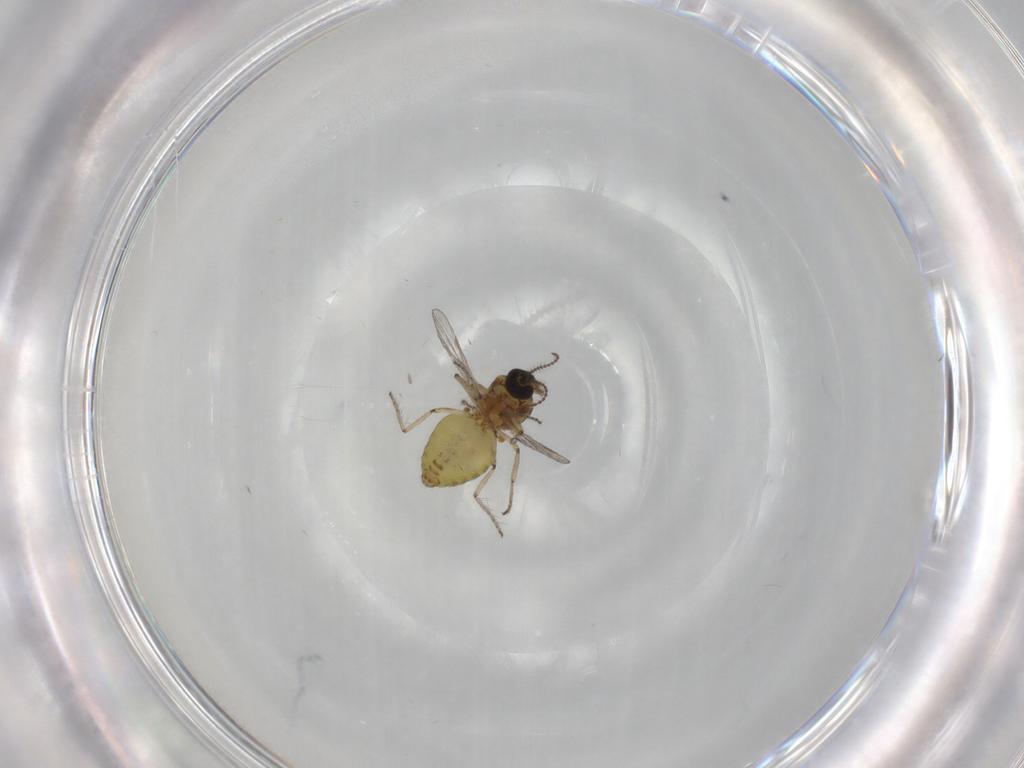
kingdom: Animalia
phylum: Arthropoda
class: Insecta
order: Diptera
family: Ceratopogonidae
